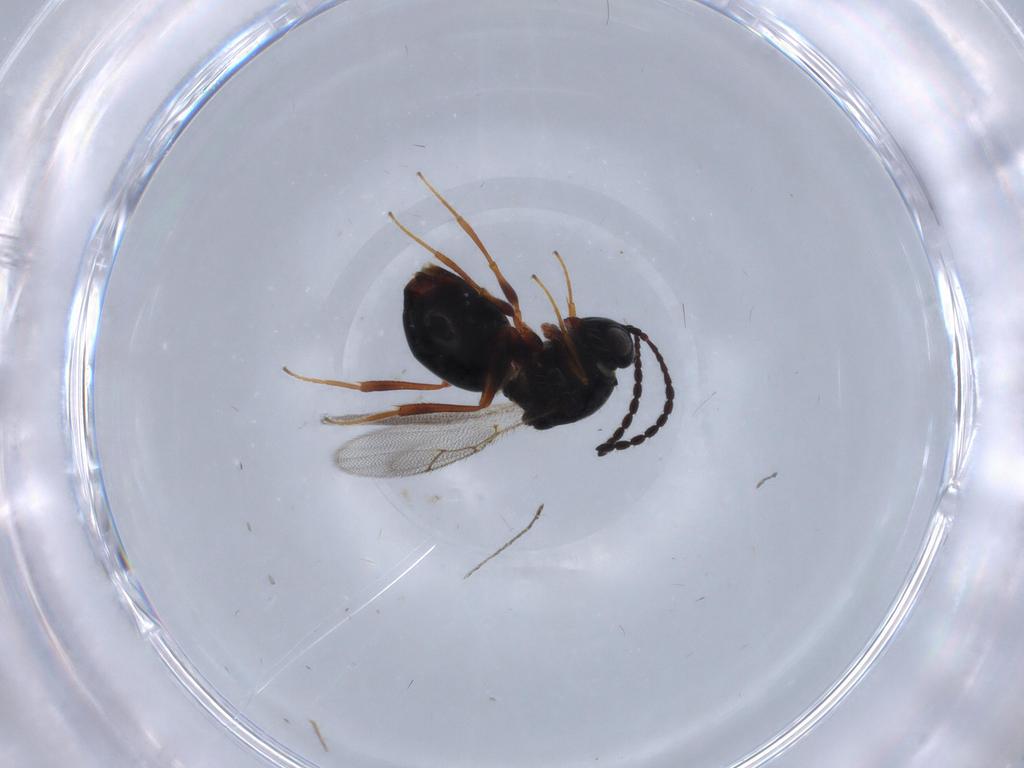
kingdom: Animalia
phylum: Arthropoda
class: Insecta
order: Hymenoptera
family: Figitidae
